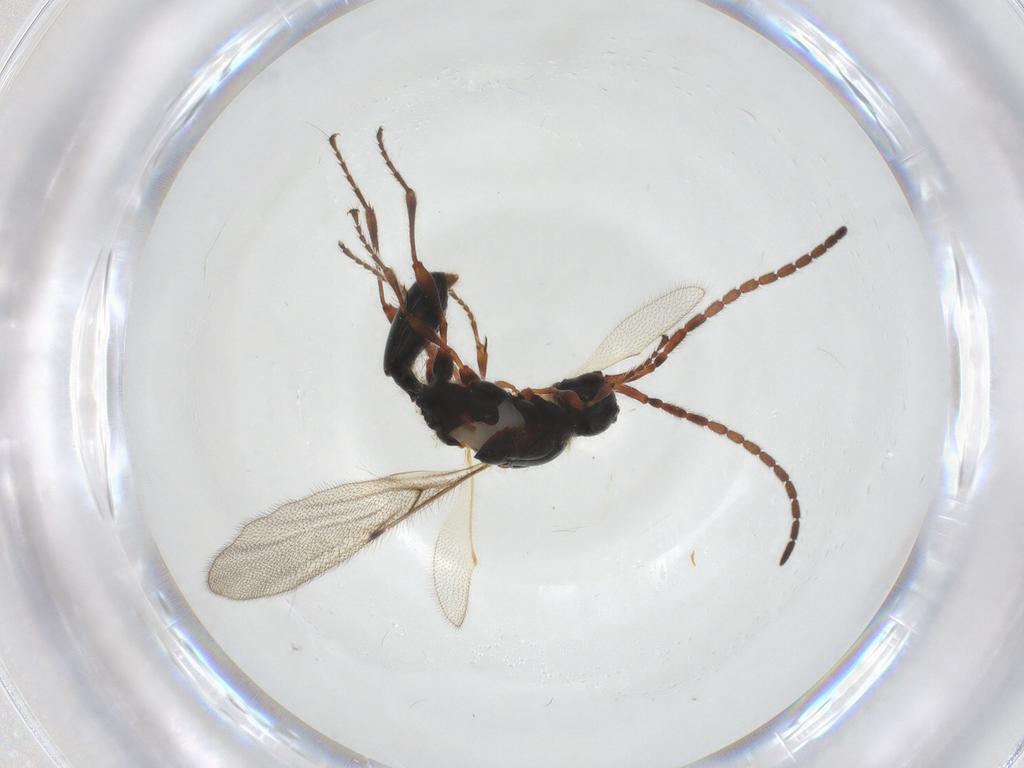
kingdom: Animalia
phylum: Arthropoda
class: Insecta
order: Hymenoptera
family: Diapriidae
